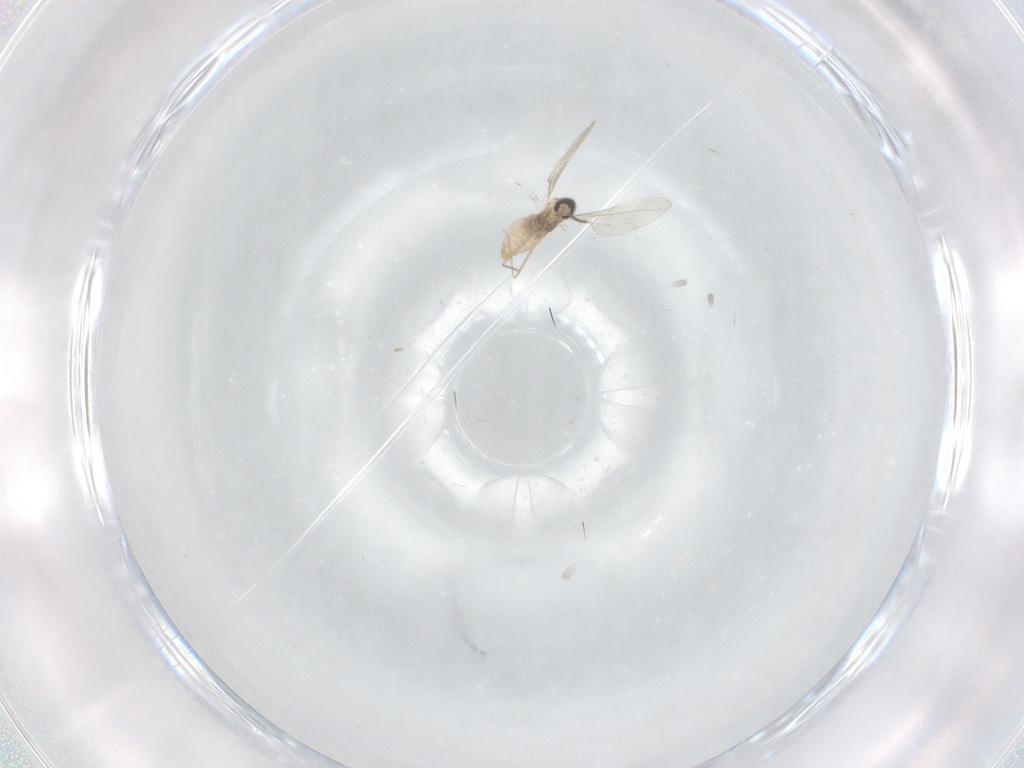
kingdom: Animalia
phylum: Arthropoda
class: Insecta
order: Diptera
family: Cecidomyiidae
